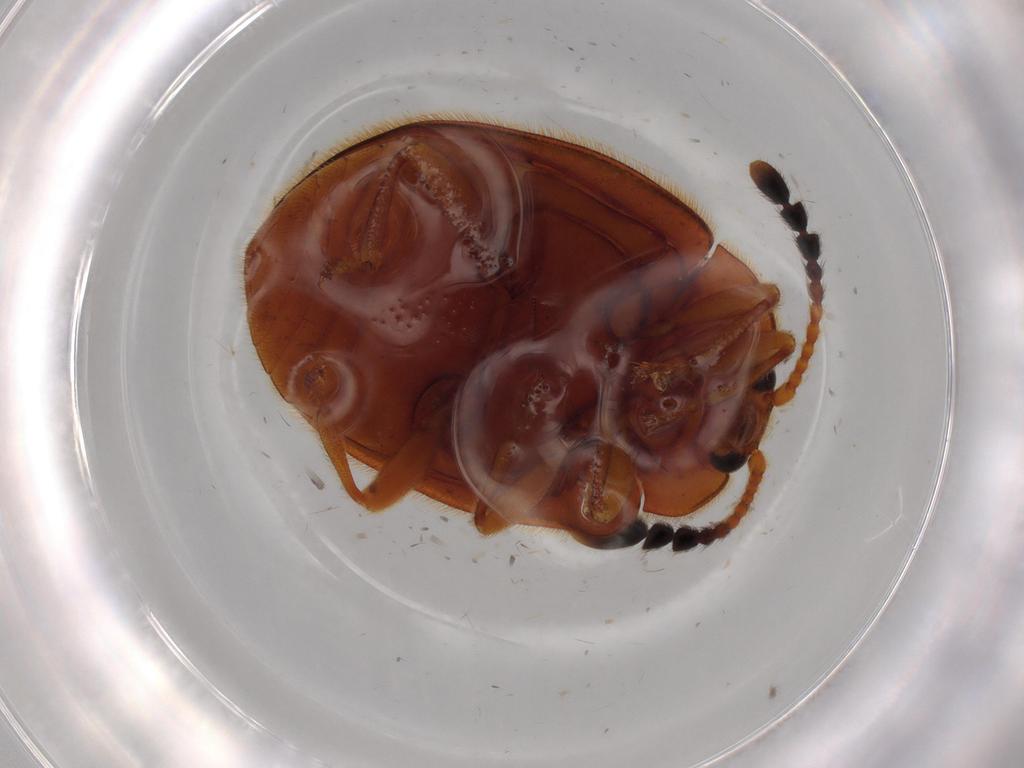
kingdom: Animalia
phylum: Arthropoda
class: Insecta
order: Coleoptera
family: Endomychidae
